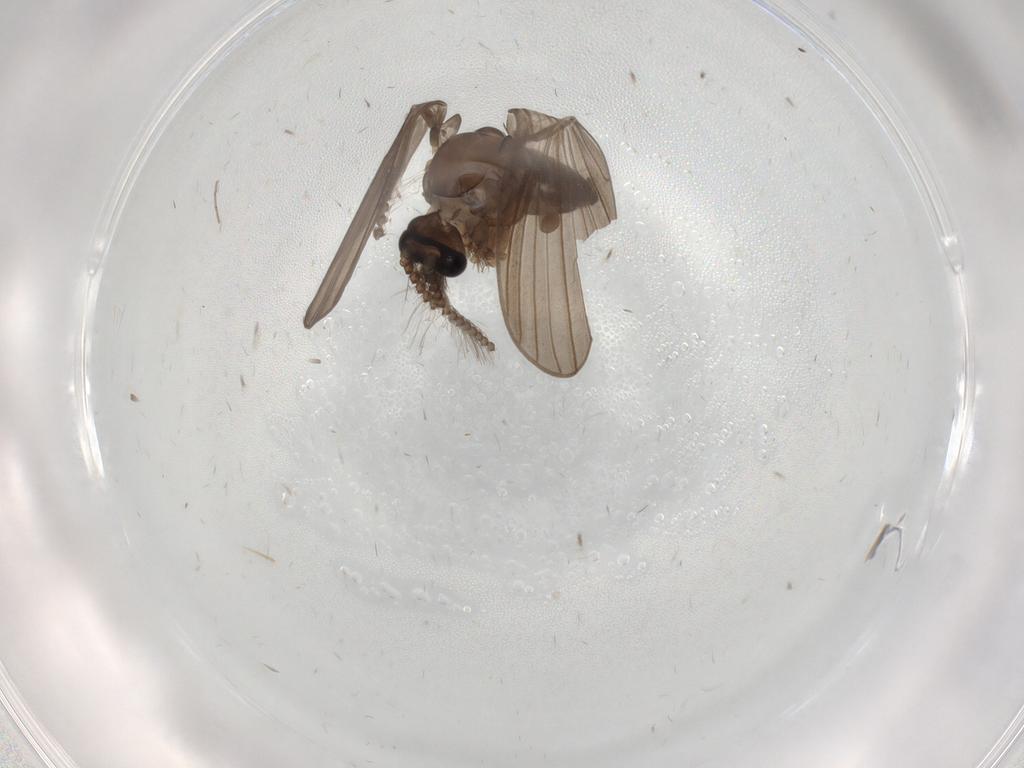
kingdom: Animalia
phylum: Arthropoda
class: Insecta
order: Diptera
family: Psychodidae
